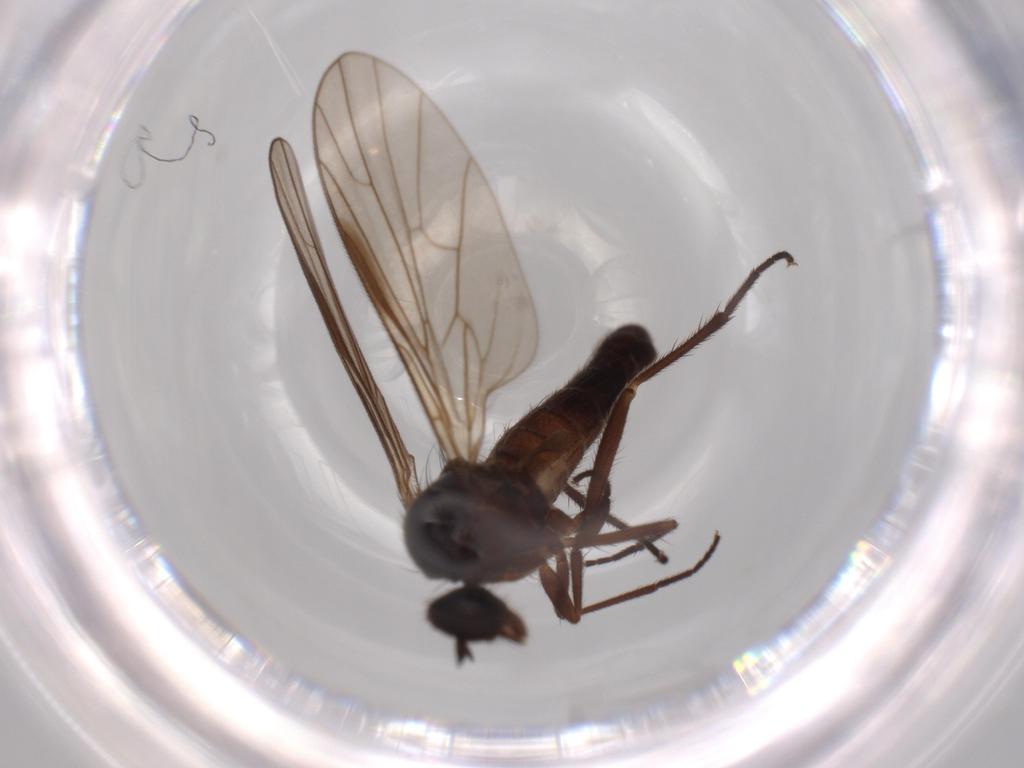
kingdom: Animalia
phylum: Arthropoda
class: Insecta
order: Diptera
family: Empididae
